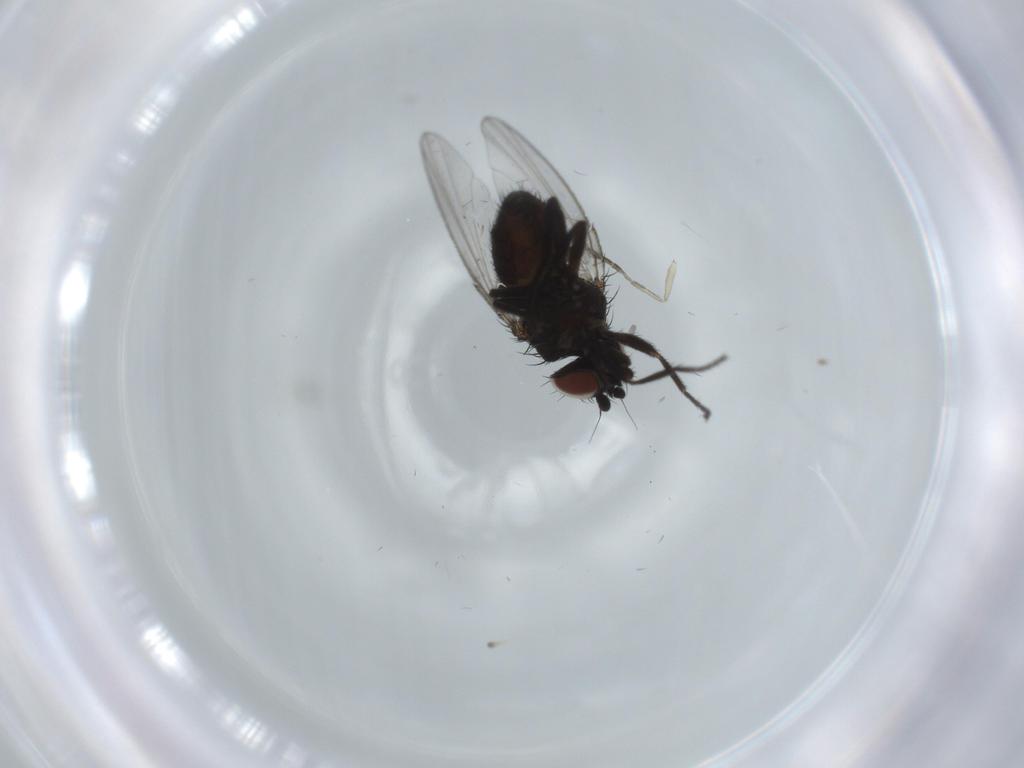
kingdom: Animalia
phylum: Arthropoda
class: Insecta
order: Diptera
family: Milichiidae
